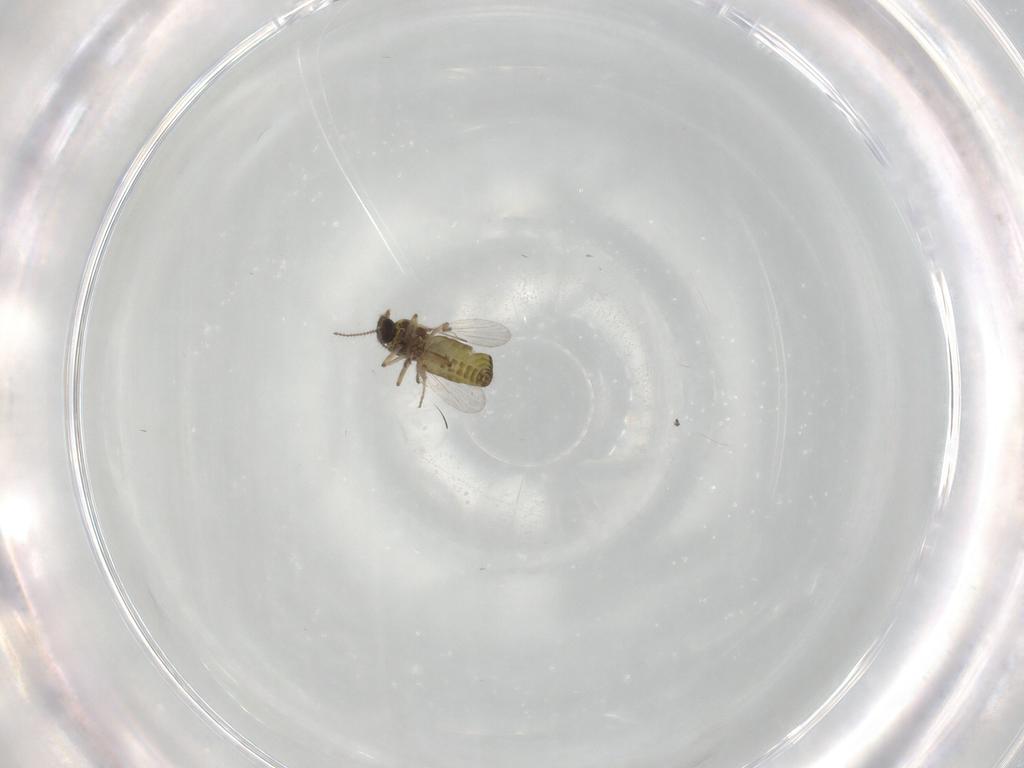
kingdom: Animalia
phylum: Arthropoda
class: Insecta
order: Diptera
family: Ceratopogonidae
